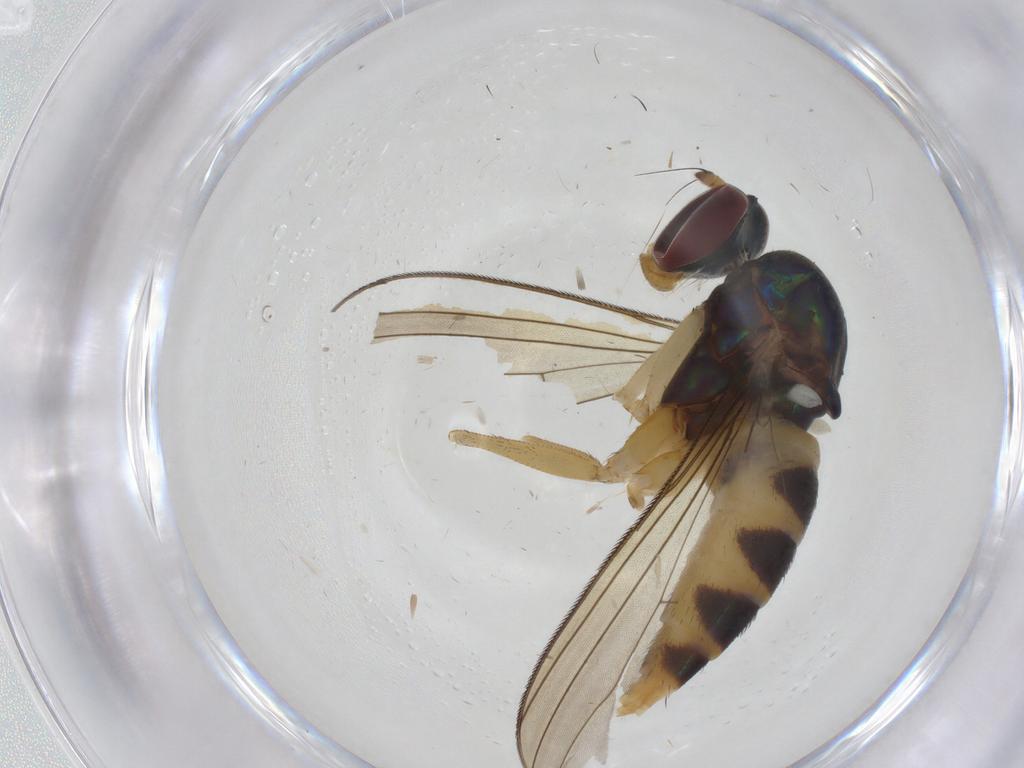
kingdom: Animalia
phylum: Arthropoda
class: Insecta
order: Diptera
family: Dolichopodidae
